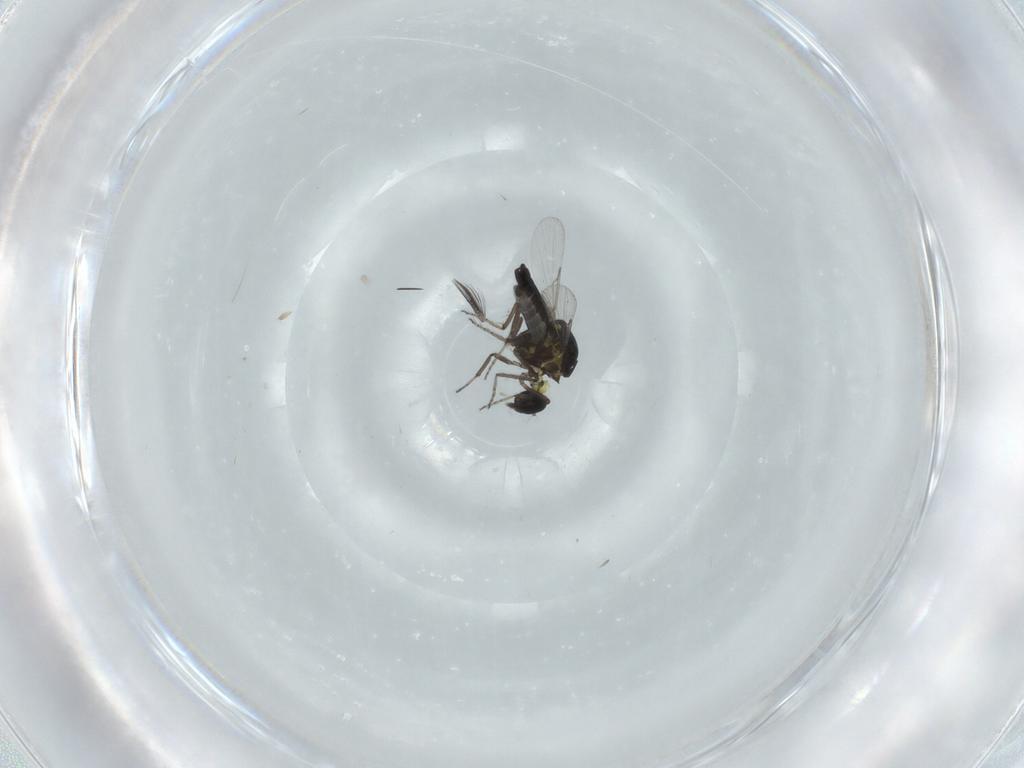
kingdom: Animalia
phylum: Arthropoda
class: Insecta
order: Diptera
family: Ceratopogonidae
